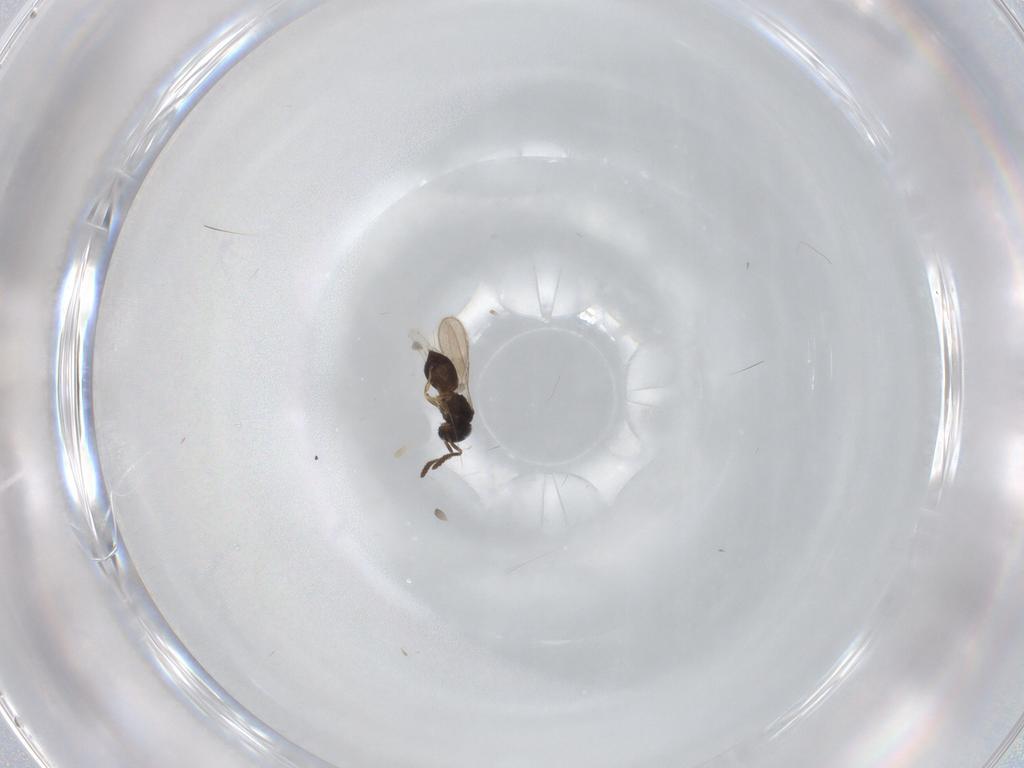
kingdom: Animalia
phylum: Arthropoda
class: Insecta
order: Hymenoptera
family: Scelionidae
